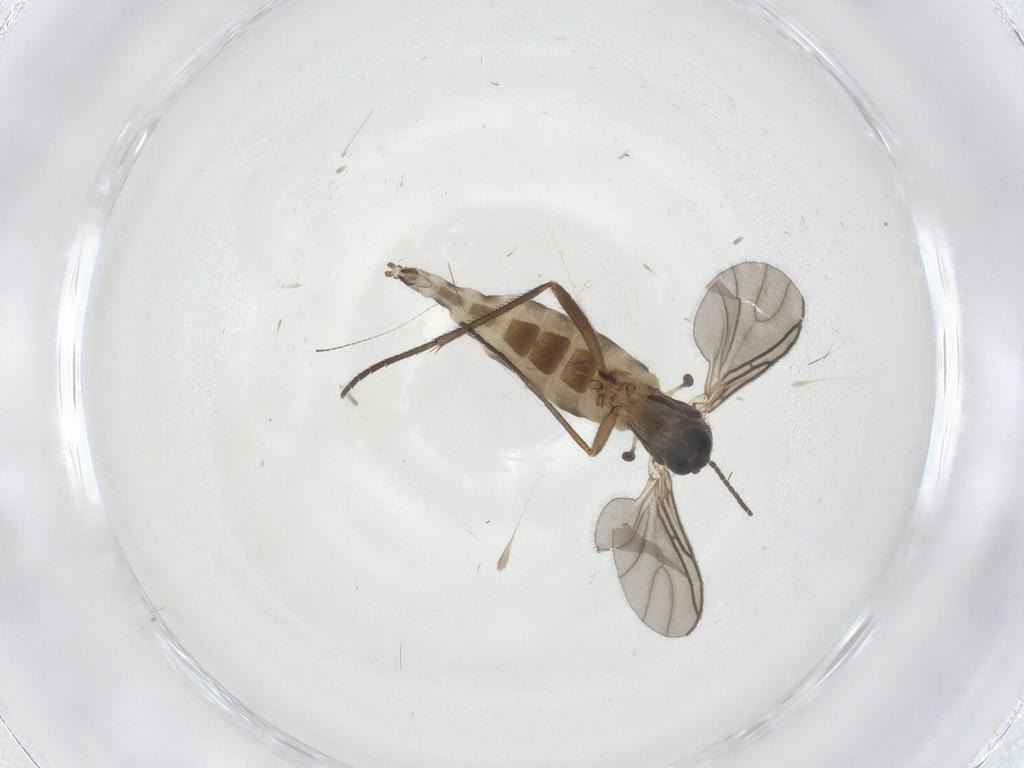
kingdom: Animalia
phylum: Arthropoda
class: Insecta
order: Diptera
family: Sciaridae
